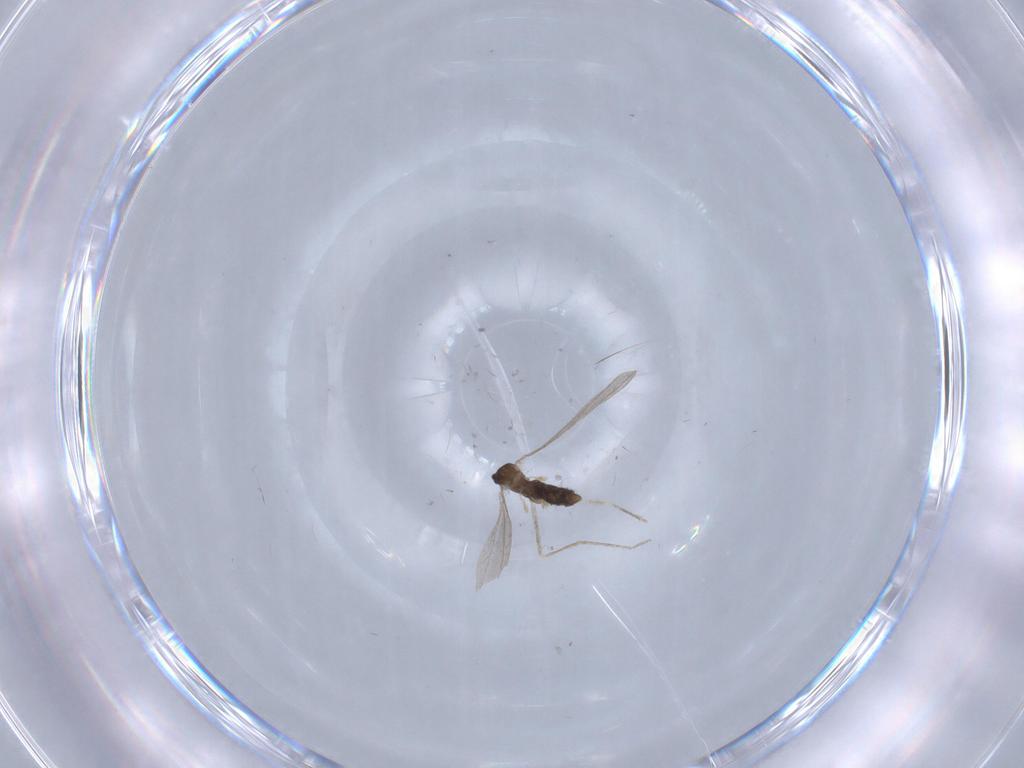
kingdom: Animalia
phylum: Arthropoda
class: Insecta
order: Diptera
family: Cecidomyiidae
